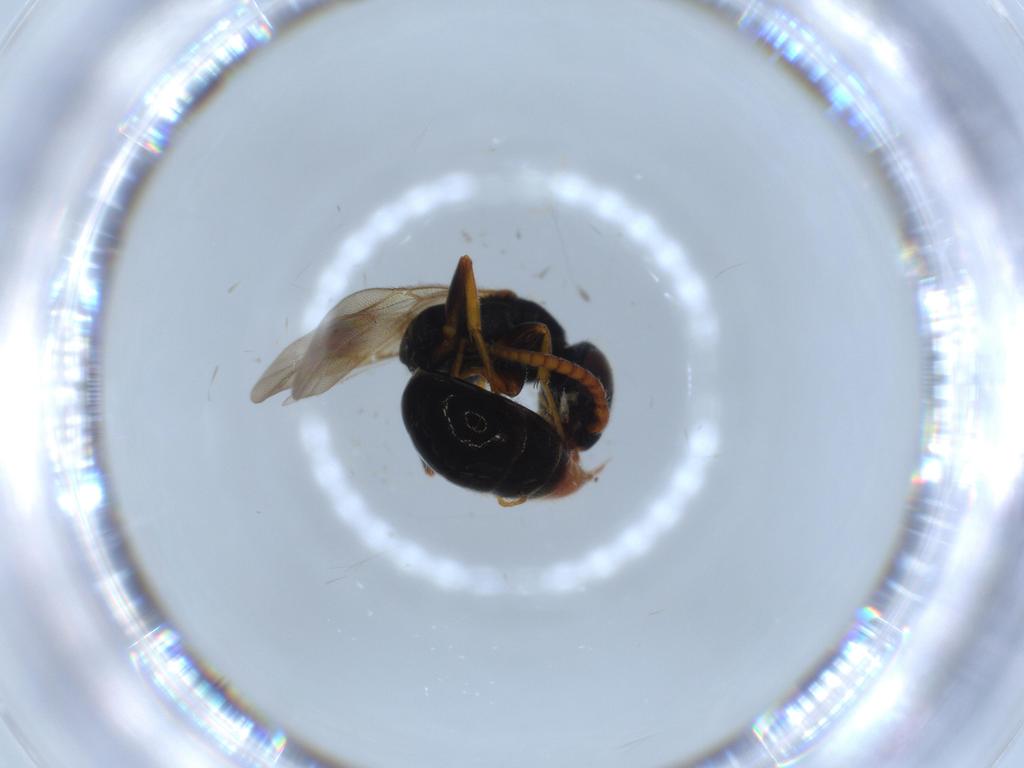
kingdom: Animalia
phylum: Arthropoda
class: Insecta
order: Hymenoptera
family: Bethylidae
